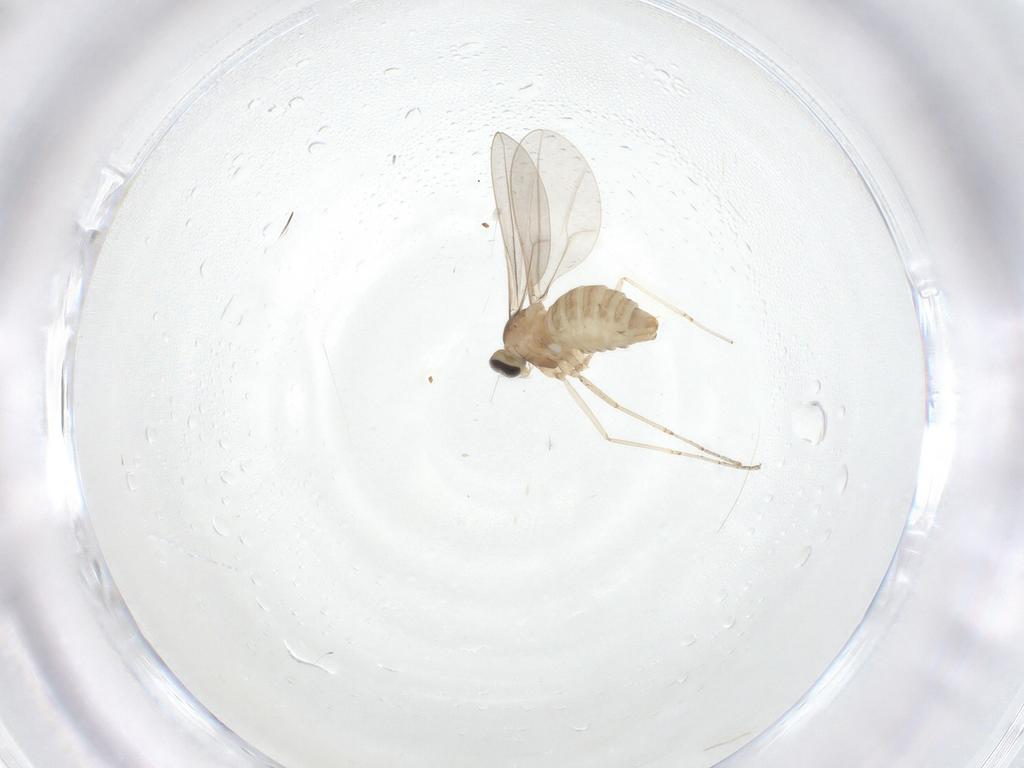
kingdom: Animalia
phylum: Arthropoda
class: Insecta
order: Diptera
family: Cecidomyiidae
